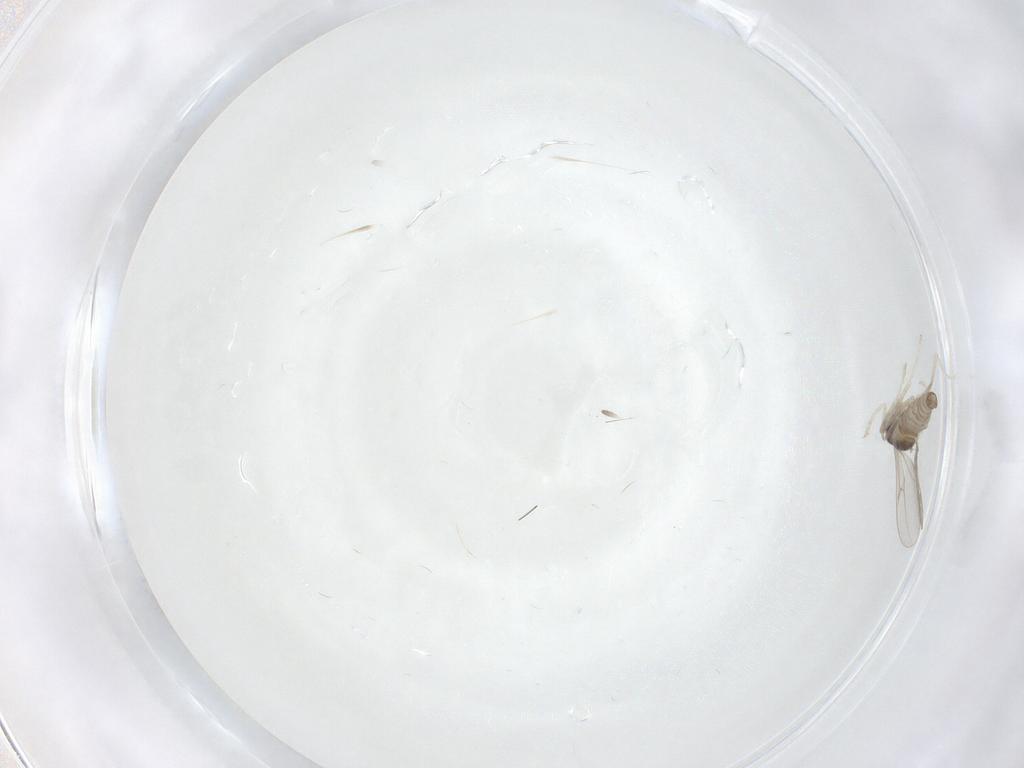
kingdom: Animalia
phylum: Arthropoda
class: Insecta
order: Diptera
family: Cecidomyiidae
